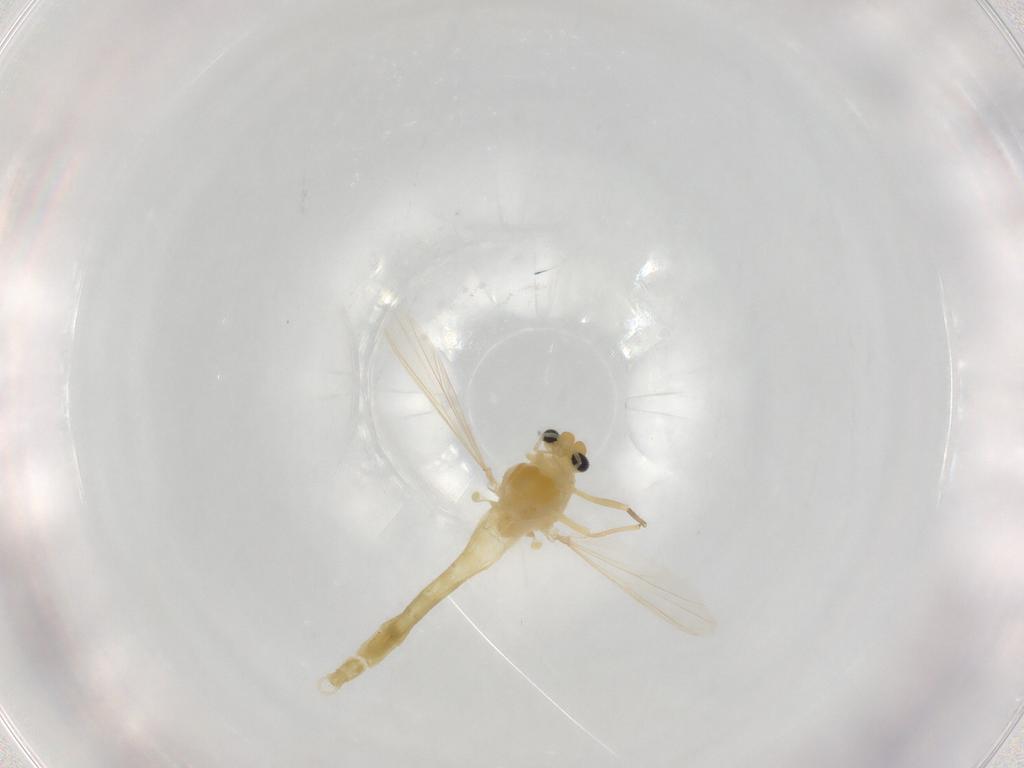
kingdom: Animalia
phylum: Arthropoda
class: Insecta
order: Diptera
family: Chironomidae
